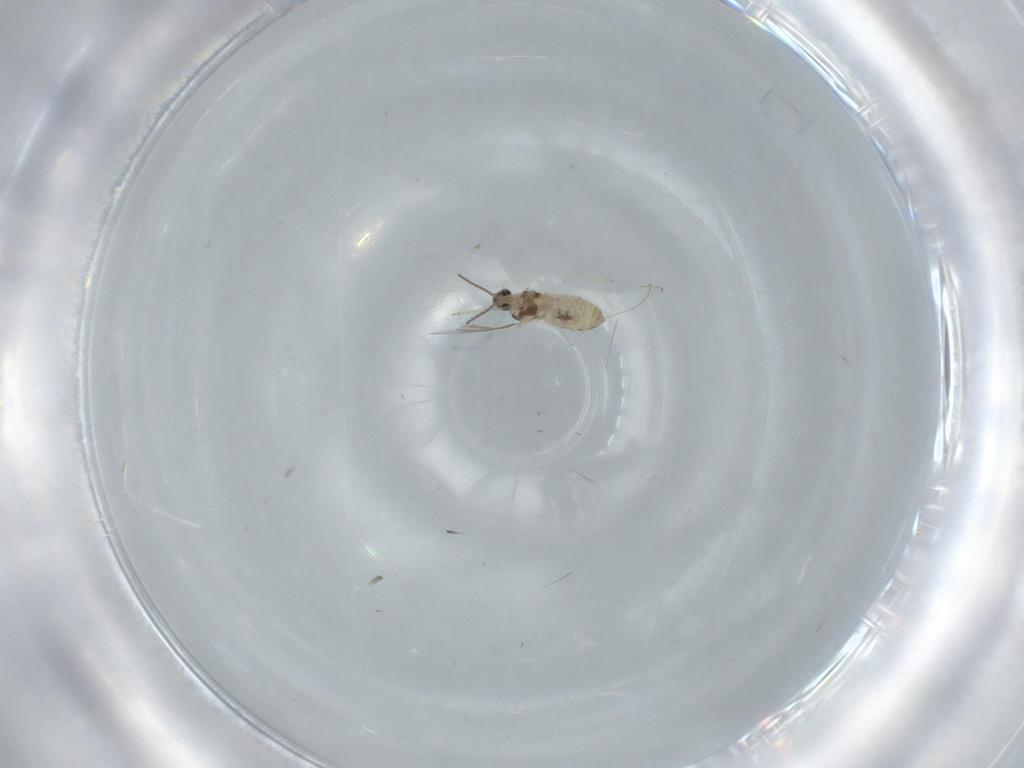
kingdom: Animalia
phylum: Arthropoda
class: Insecta
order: Diptera
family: Cecidomyiidae
